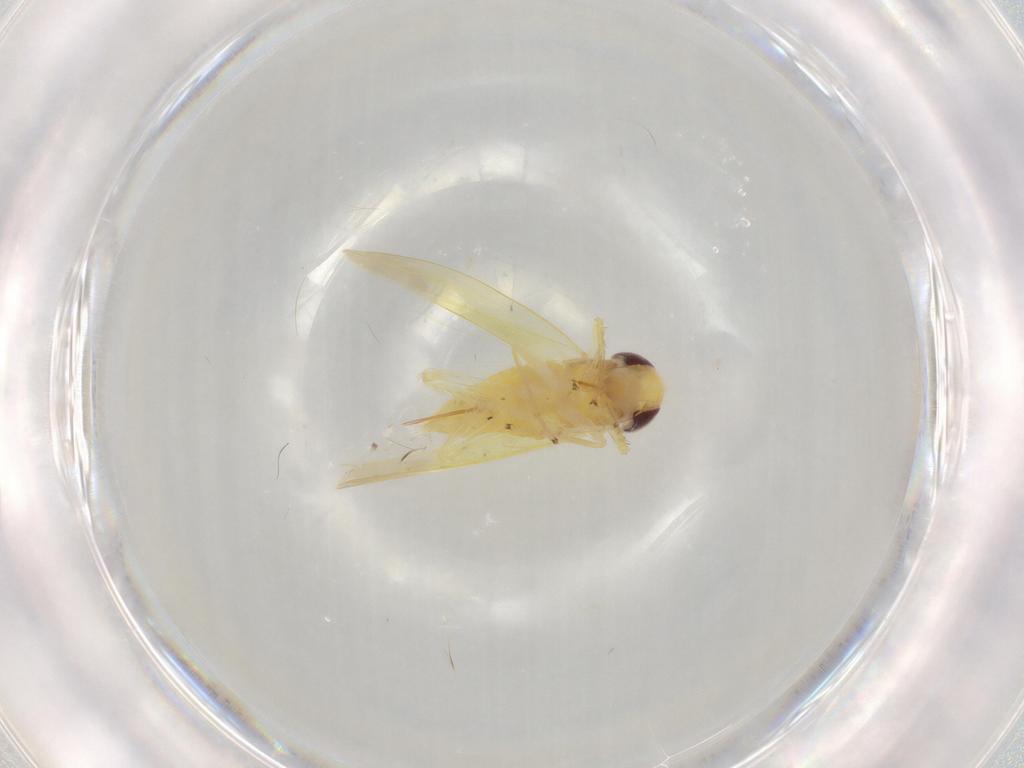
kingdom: Animalia
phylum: Arthropoda
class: Insecta
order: Hemiptera
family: Cicadellidae
